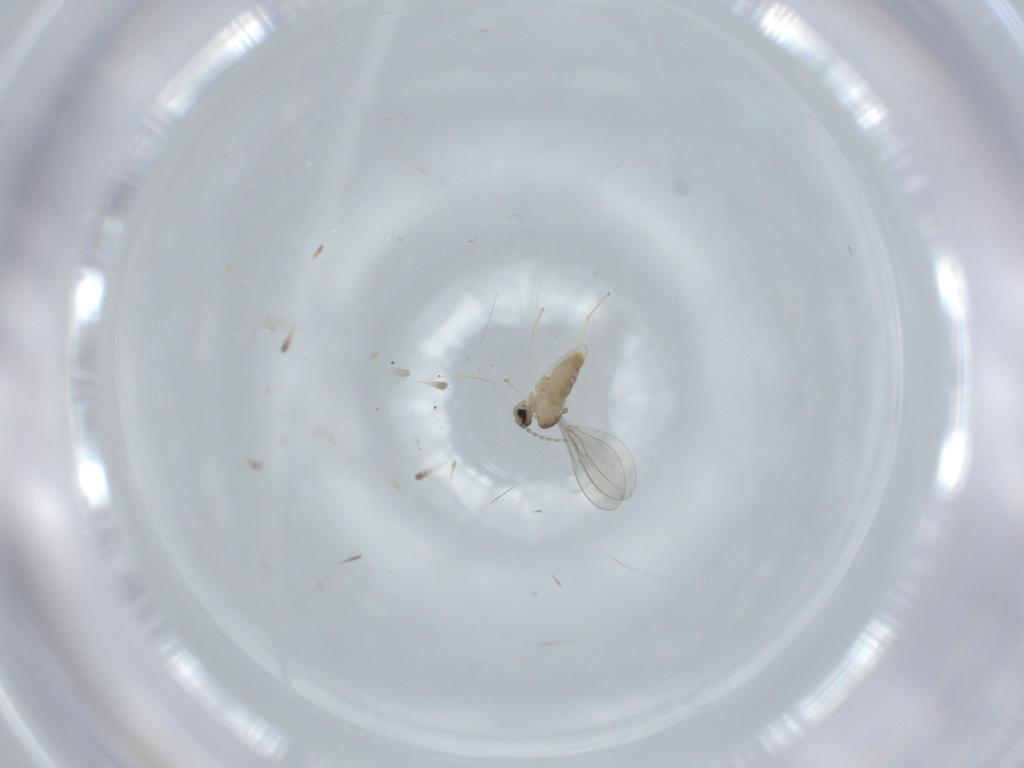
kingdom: Animalia
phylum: Arthropoda
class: Insecta
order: Diptera
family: Cecidomyiidae
